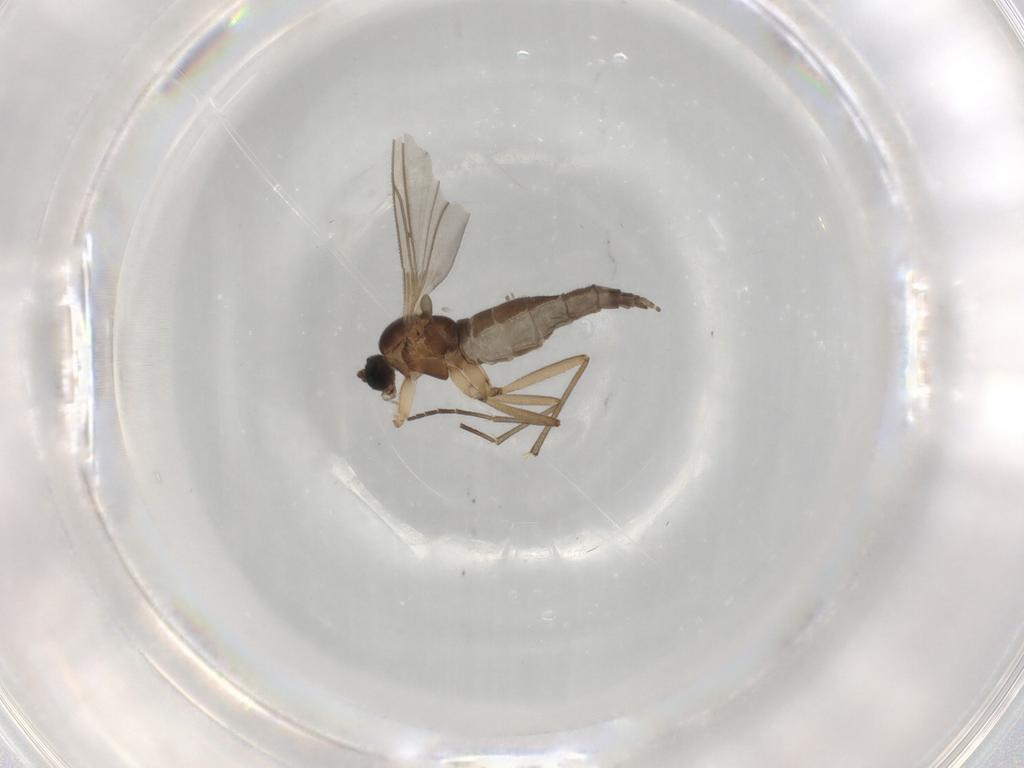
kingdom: Animalia
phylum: Arthropoda
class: Insecta
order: Diptera
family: Sciaridae
